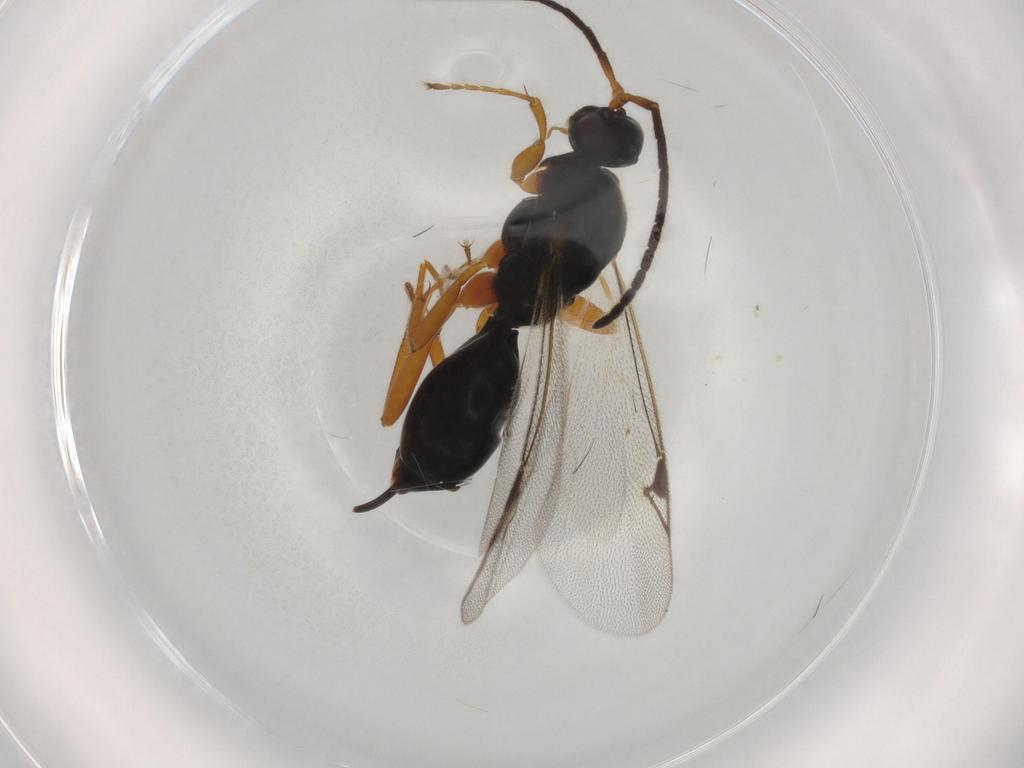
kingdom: Animalia
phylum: Arthropoda
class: Insecta
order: Hymenoptera
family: Proctotrupidae
